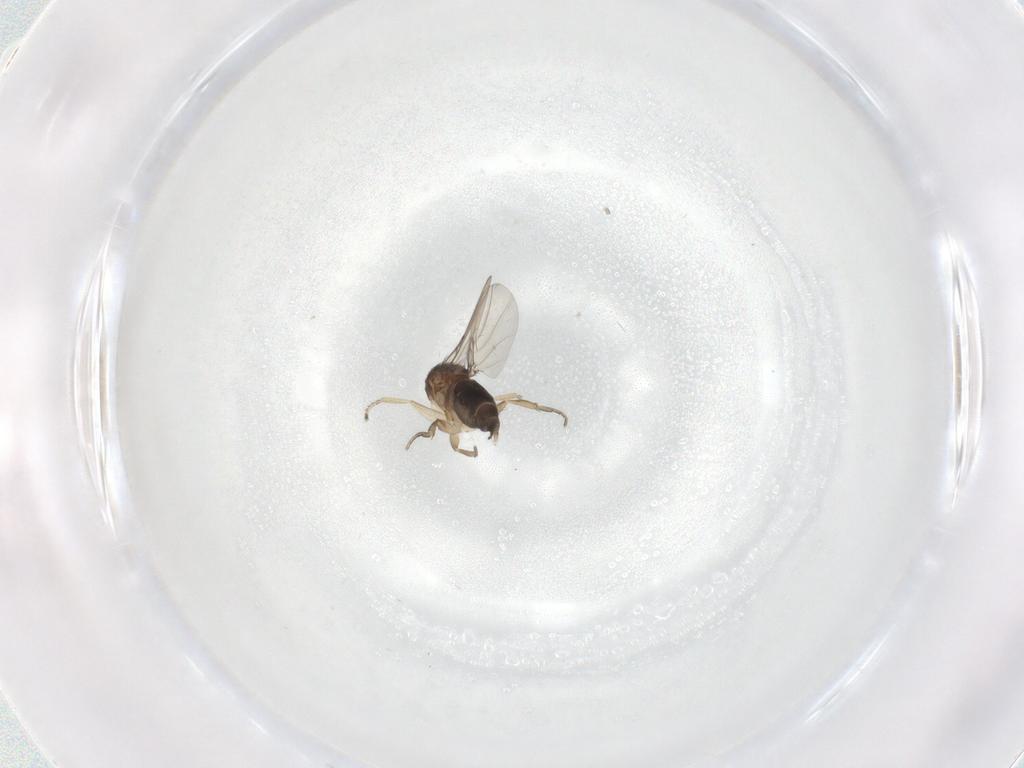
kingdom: Animalia
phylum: Arthropoda
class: Insecta
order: Diptera
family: Phoridae
